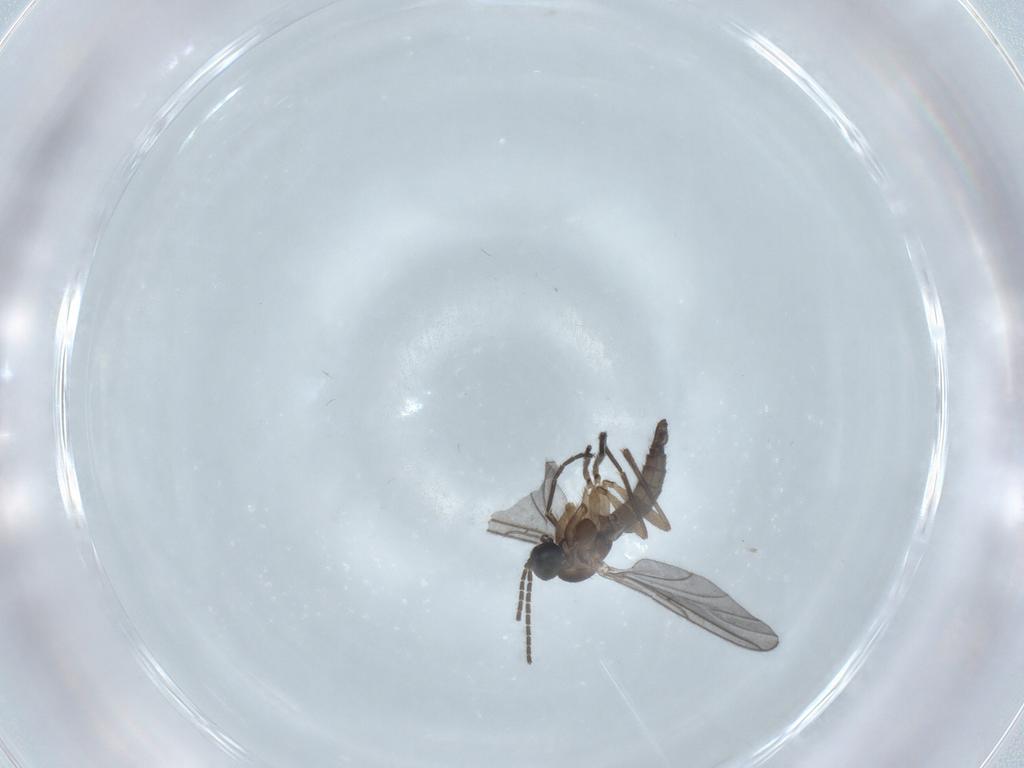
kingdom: Animalia
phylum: Arthropoda
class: Insecta
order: Diptera
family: Sciaridae
